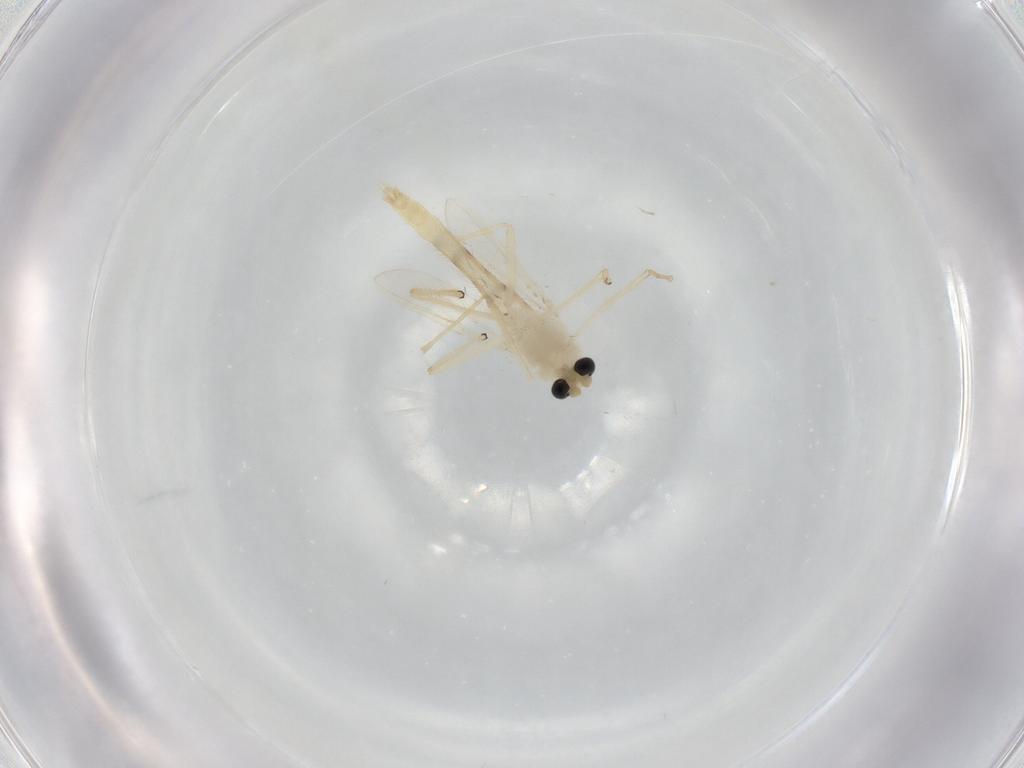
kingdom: Animalia
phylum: Arthropoda
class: Insecta
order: Diptera
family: Chironomidae
